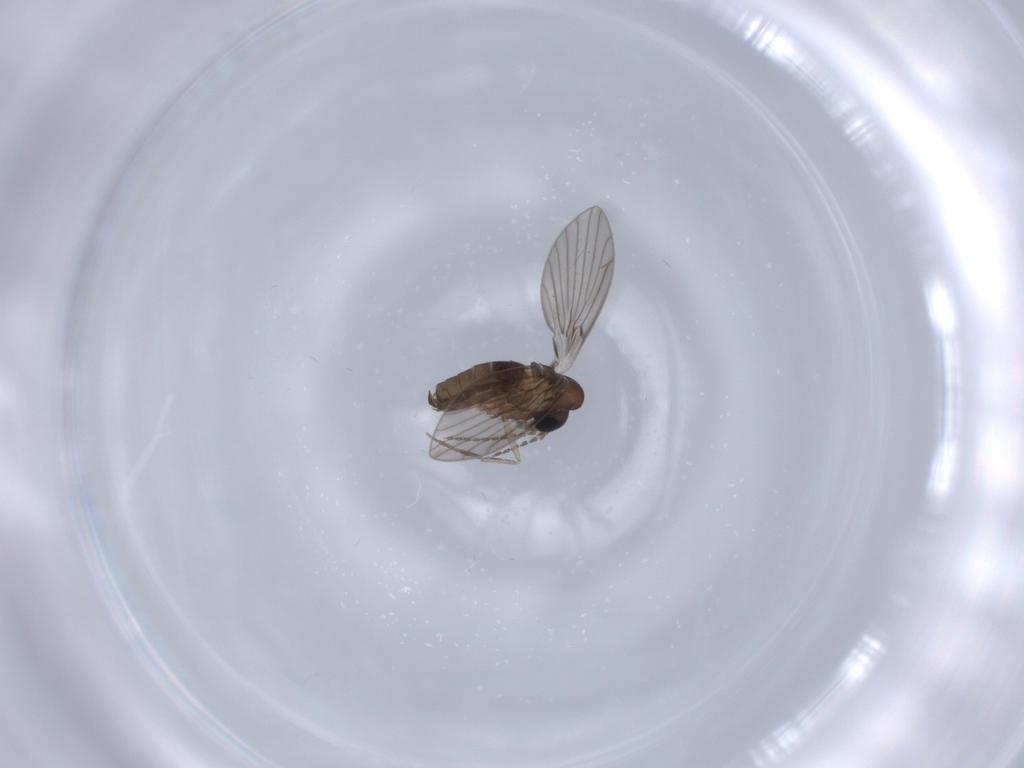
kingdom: Animalia
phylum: Arthropoda
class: Insecta
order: Diptera
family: Psychodidae
